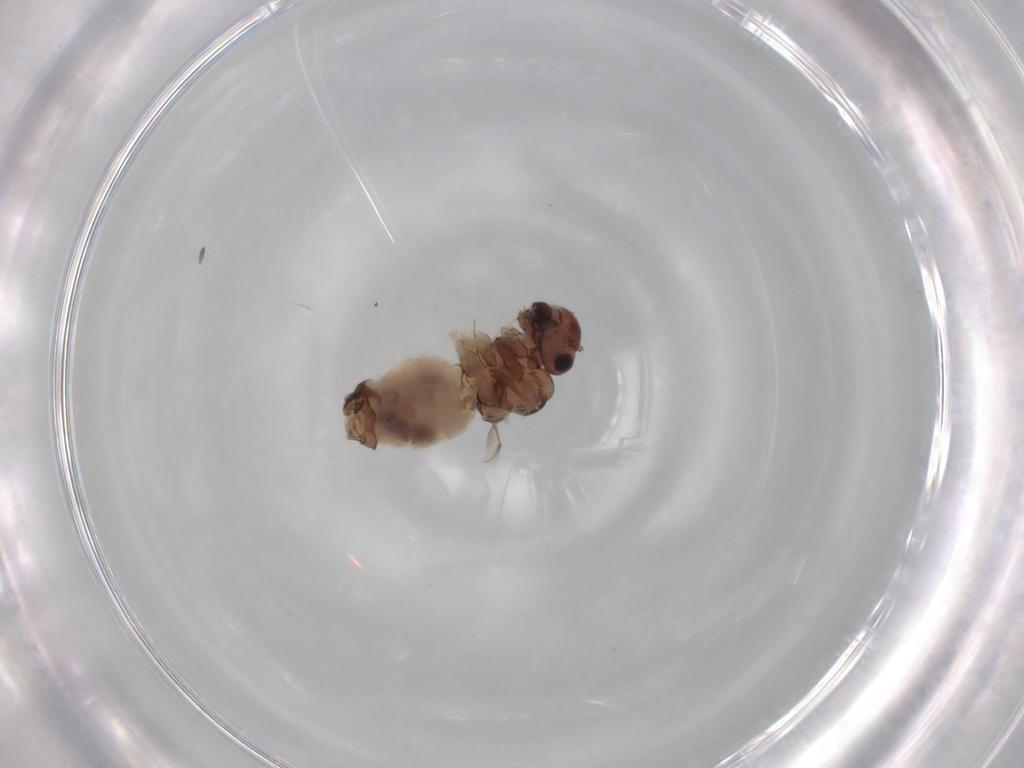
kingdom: Animalia
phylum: Arthropoda
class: Insecta
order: Psocodea
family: Peripsocidae
